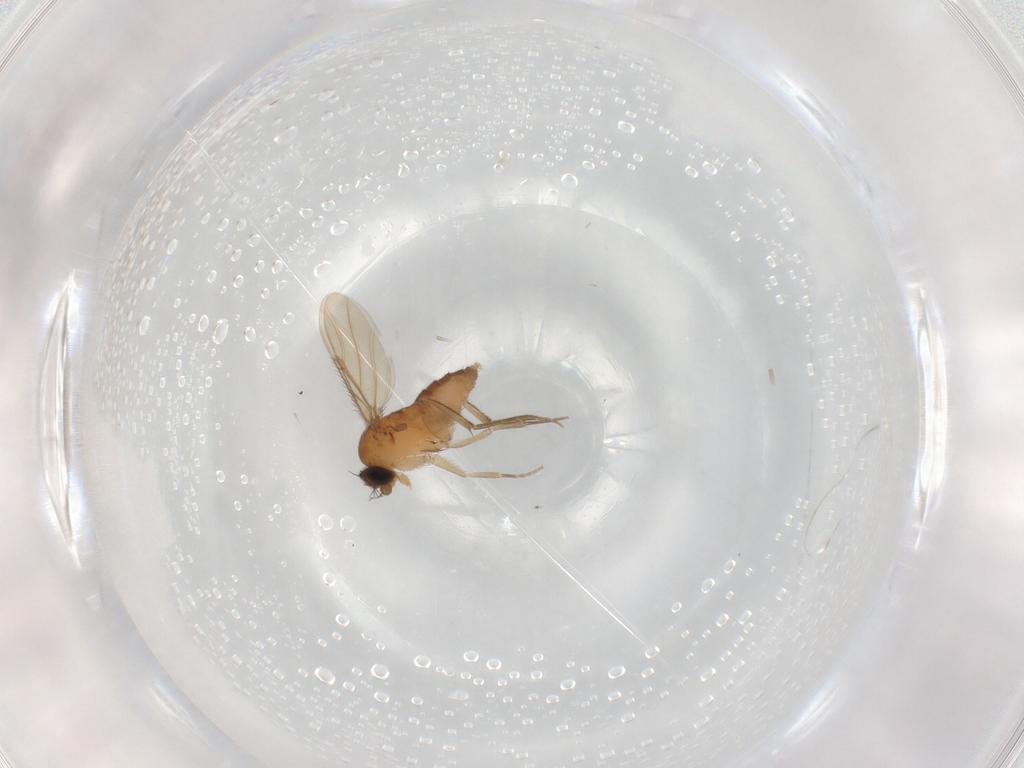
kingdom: Animalia
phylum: Arthropoda
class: Insecta
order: Diptera
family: Phoridae
